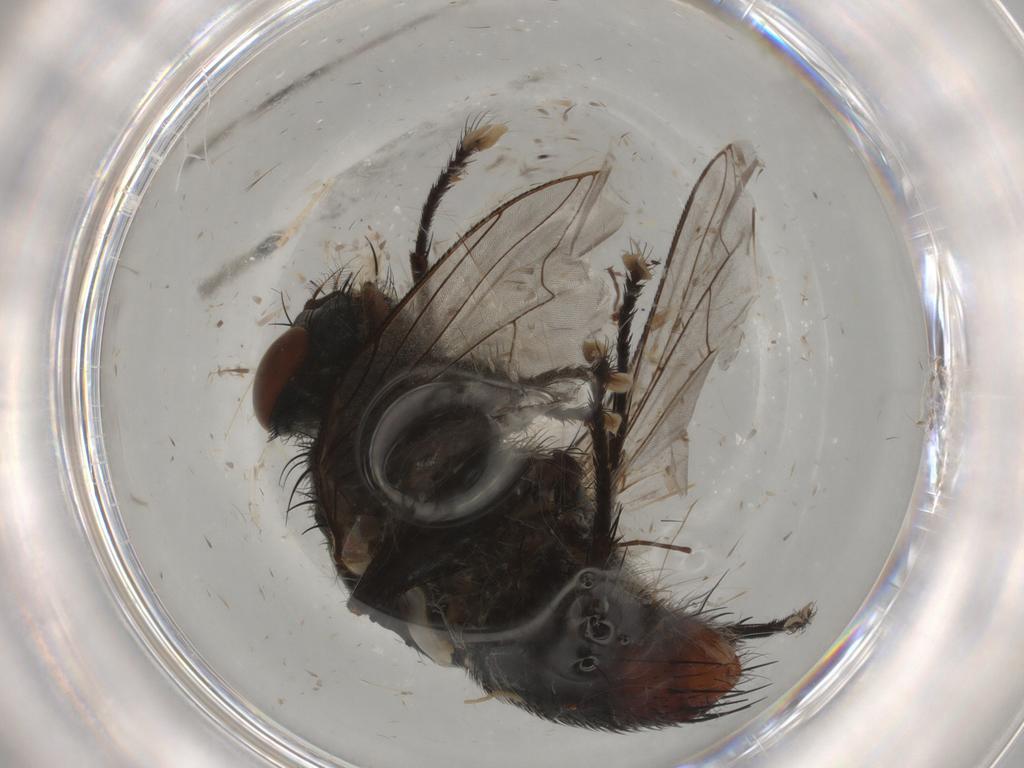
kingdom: Animalia
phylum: Arthropoda
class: Insecta
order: Diptera
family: Chironomidae
